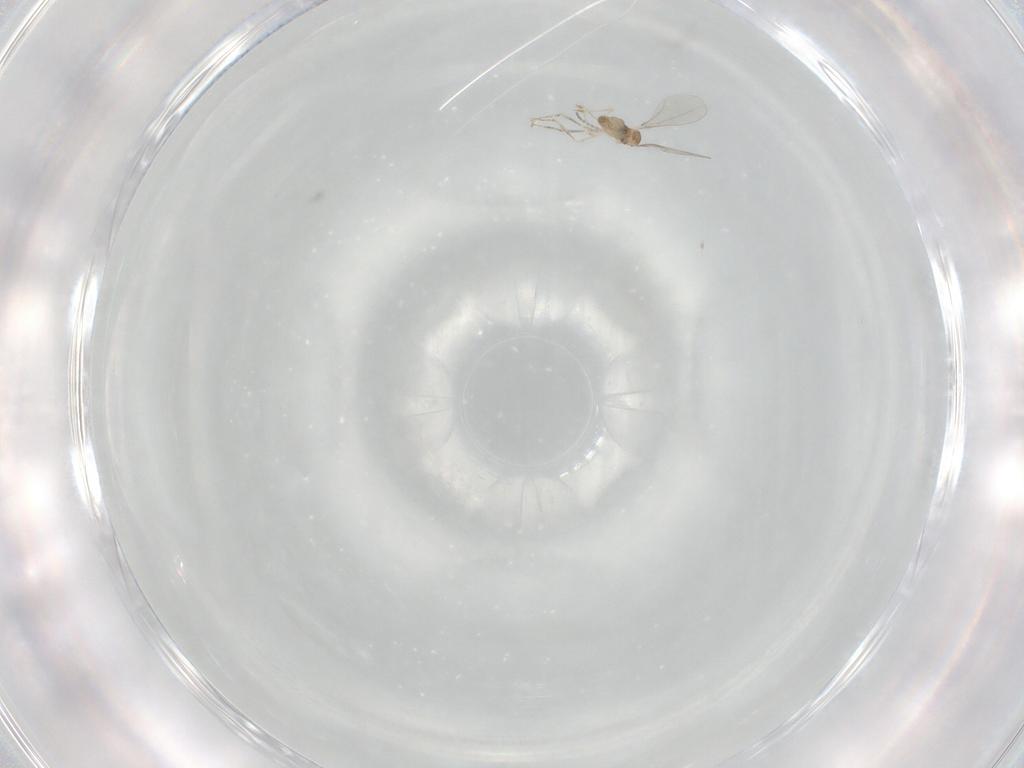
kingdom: Animalia
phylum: Arthropoda
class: Insecta
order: Diptera
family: Cecidomyiidae
